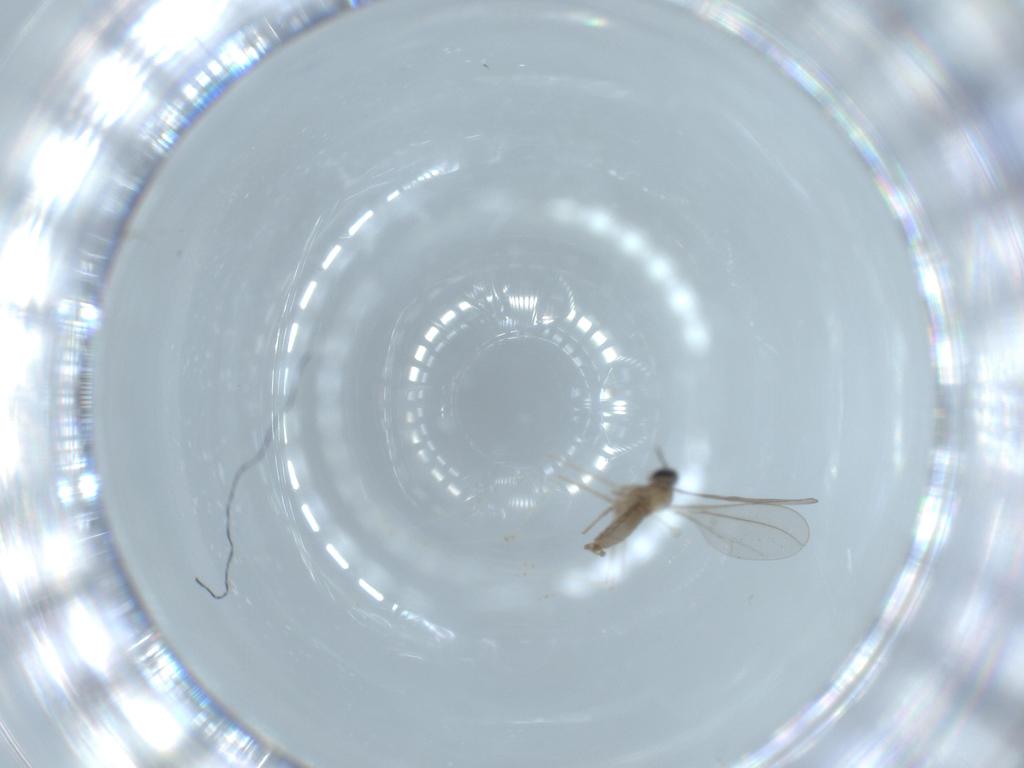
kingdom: Animalia
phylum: Arthropoda
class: Insecta
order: Diptera
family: Cecidomyiidae
